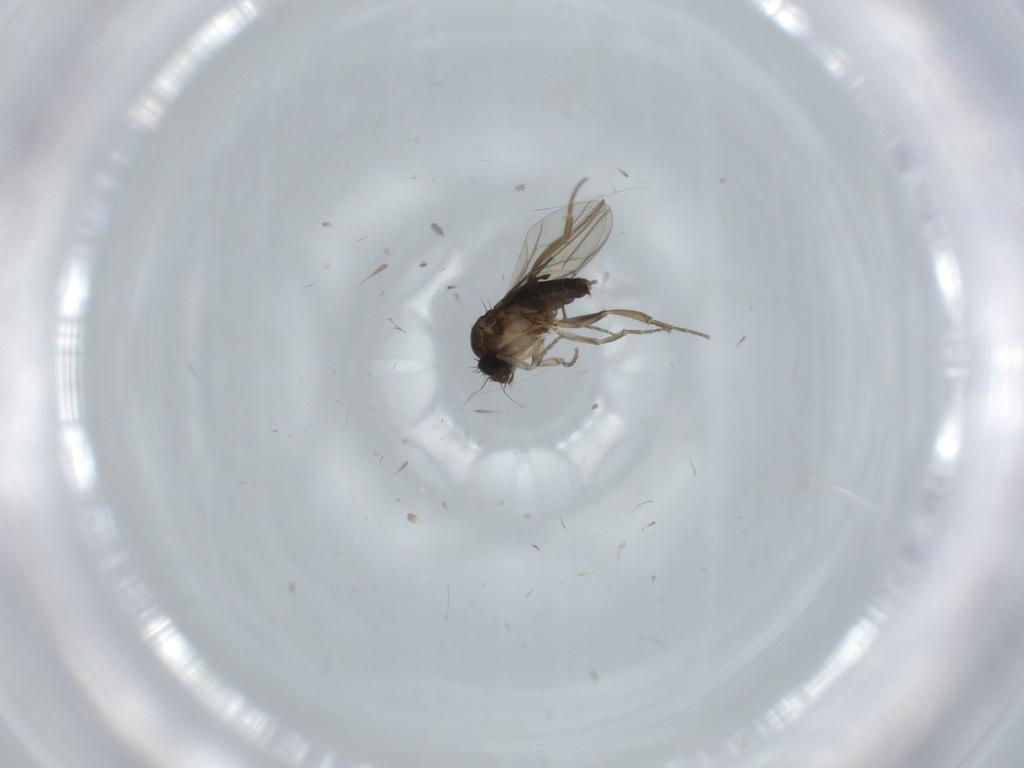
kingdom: Animalia
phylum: Arthropoda
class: Insecta
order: Diptera
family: Phoridae
